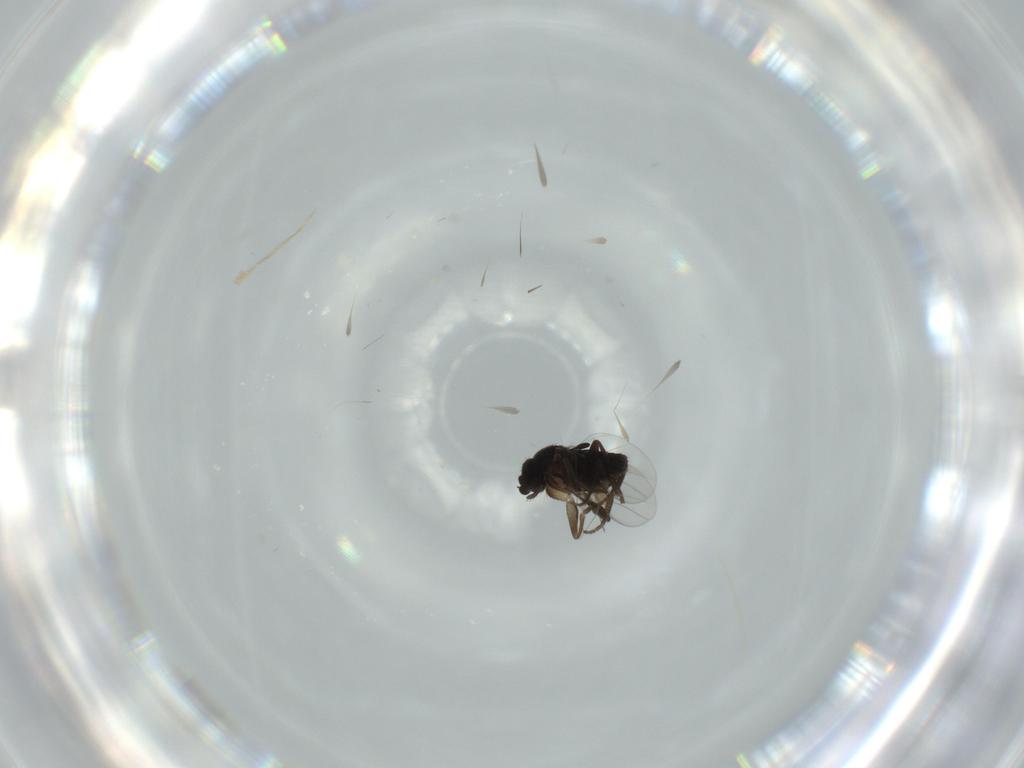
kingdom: Animalia
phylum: Arthropoda
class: Insecta
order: Diptera
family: Phoridae
